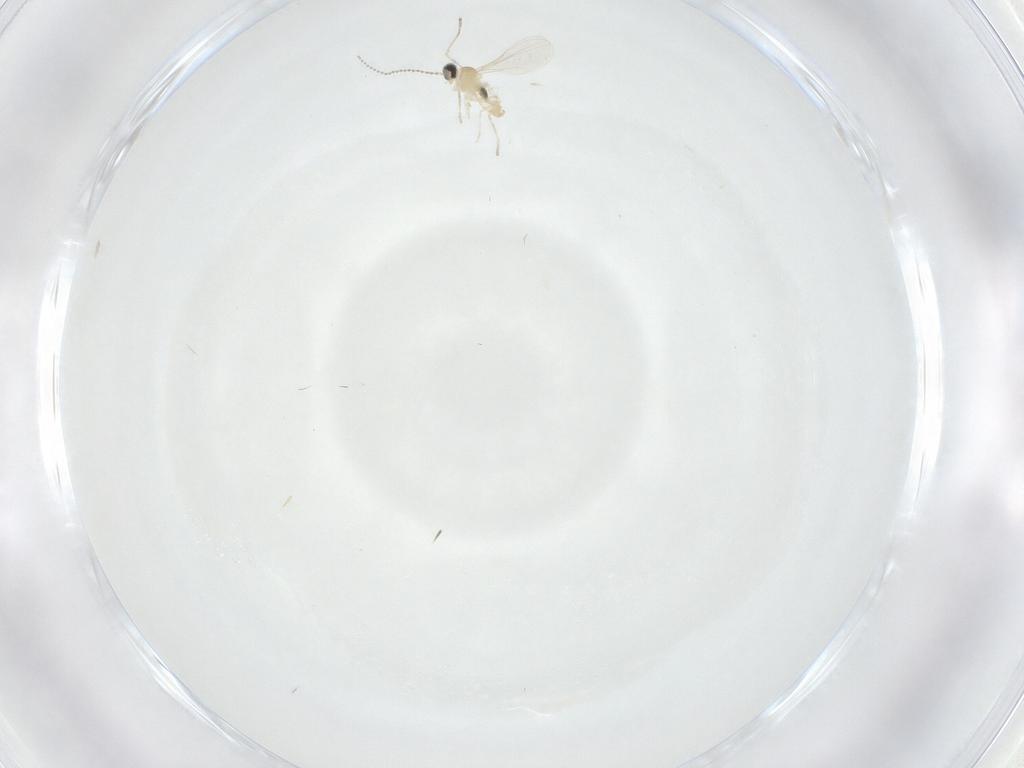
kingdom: Animalia
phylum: Arthropoda
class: Insecta
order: Diptera
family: Cecidomyiidae
